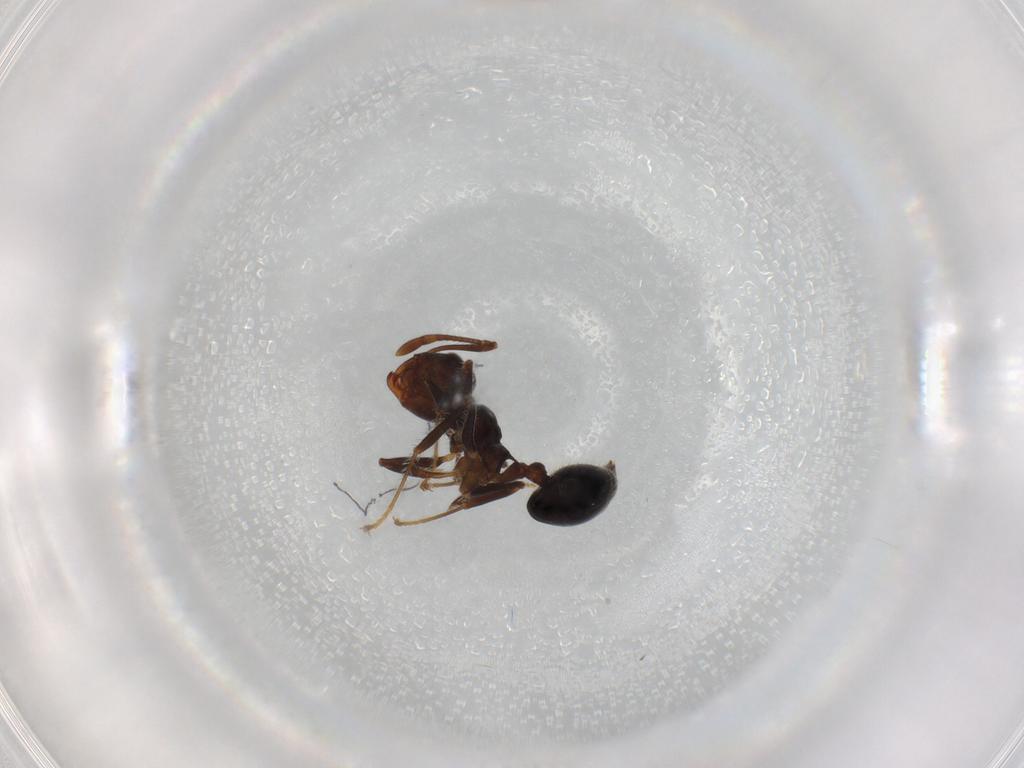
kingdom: Animalia
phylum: Arthropoda
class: Insecta
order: Hymenoptera
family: Formicidae
